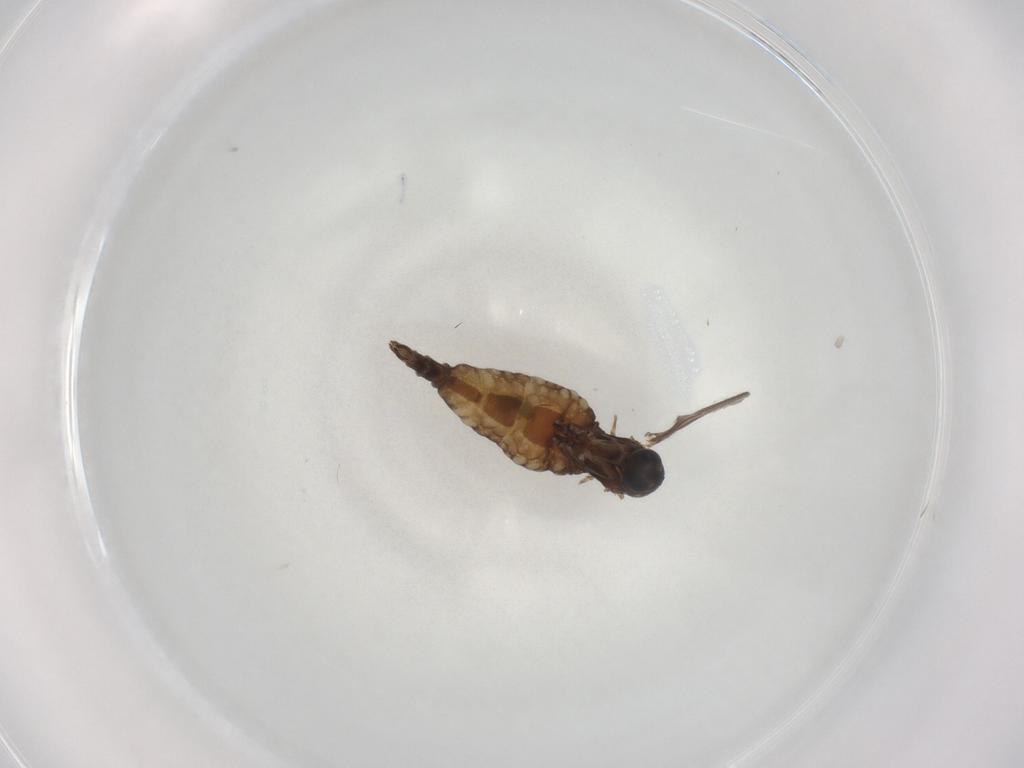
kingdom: Animalia
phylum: Arthropoda
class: Insecta
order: Diptera
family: Sciaridae
